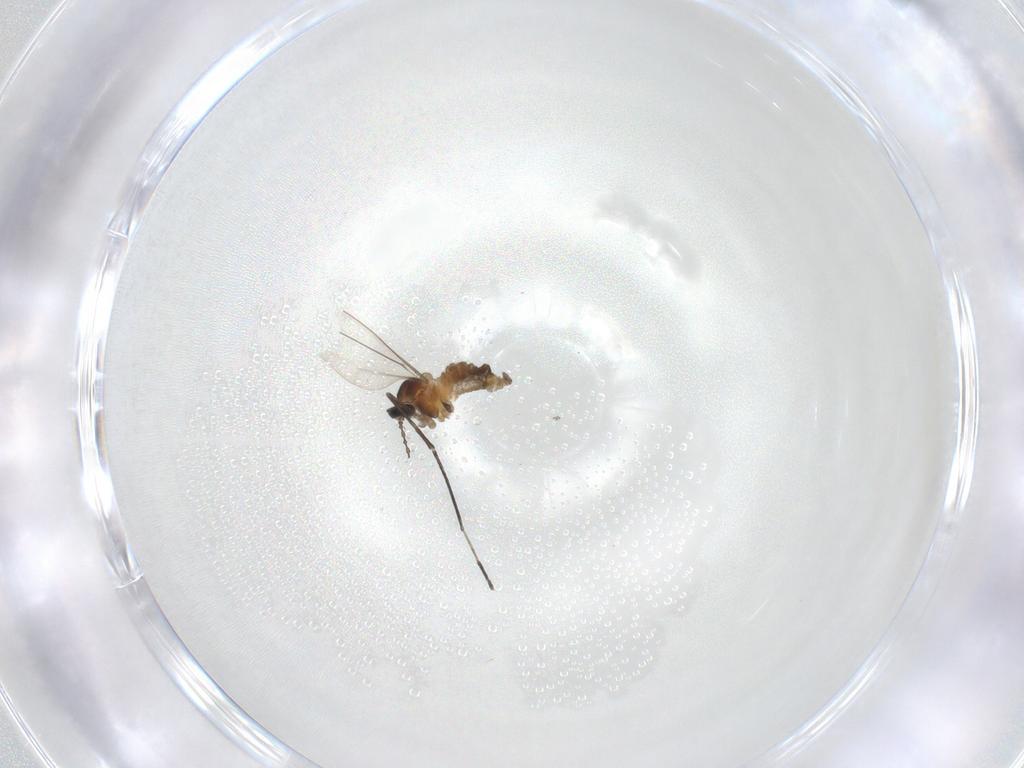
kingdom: Animalia
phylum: Arthropoda
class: Insecta
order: Diptera
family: Cecidomyiidae
